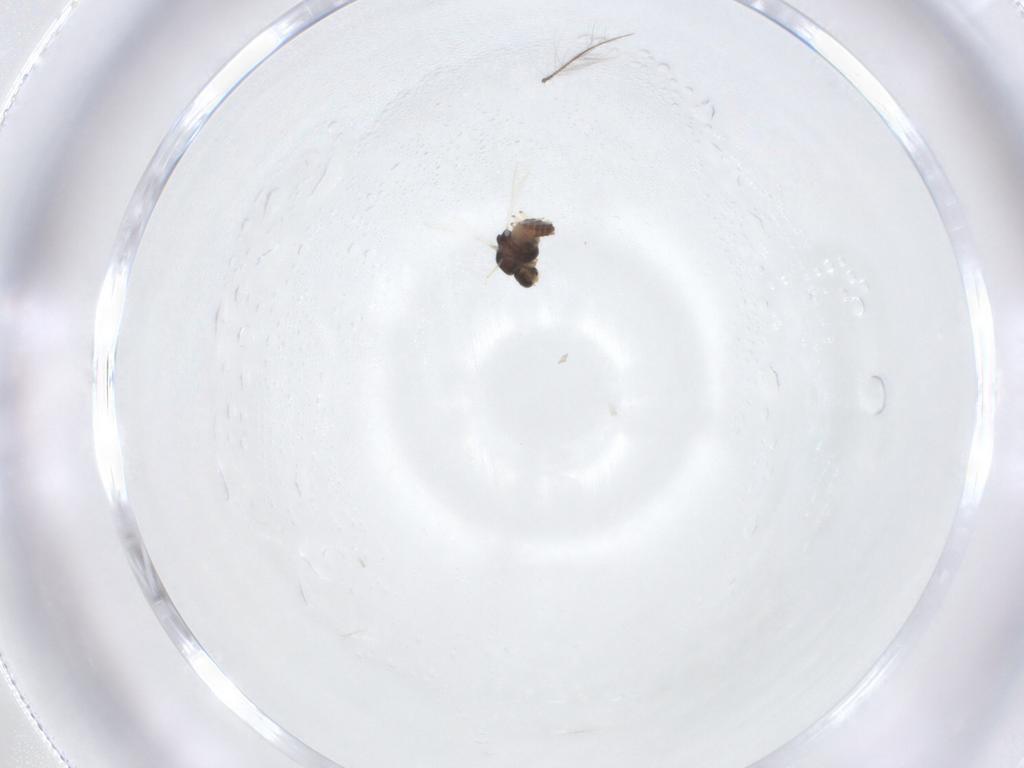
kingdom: Animalia
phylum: Arthropoda
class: Insecta
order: Diptera
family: Chironomidae
